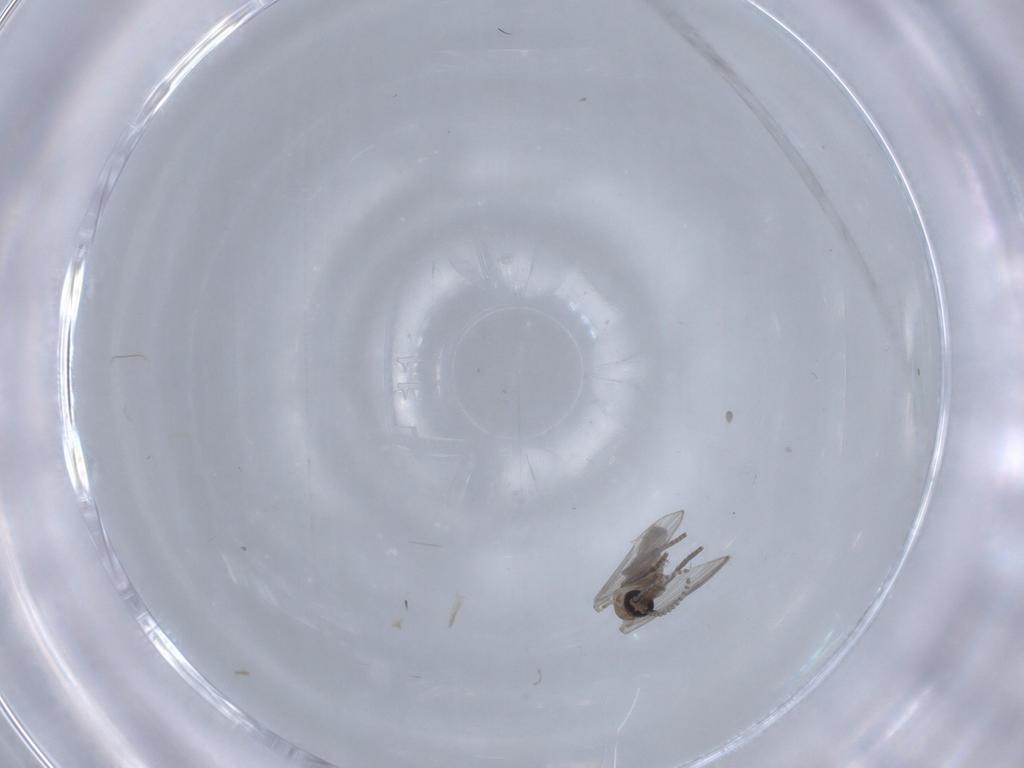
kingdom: Animalia
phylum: Arthropoda
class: Insecta
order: Diptera
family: Psychodidae
